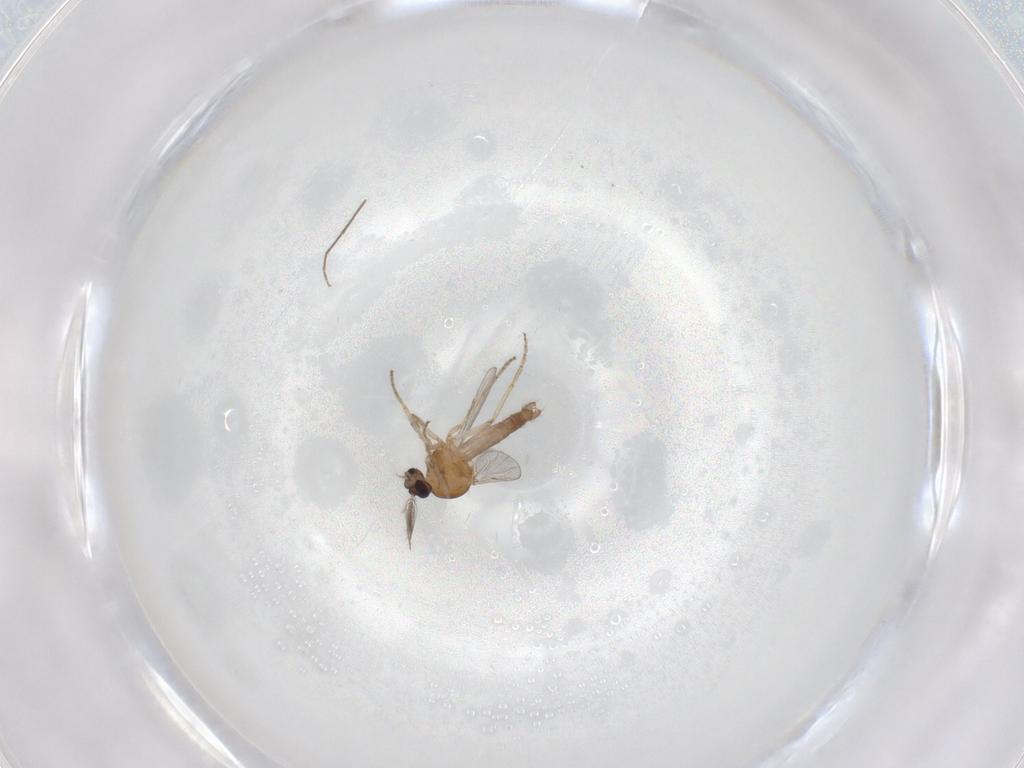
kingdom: Animalia
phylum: Arthropoda
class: Insecta
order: Diptera
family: Chironomidae
